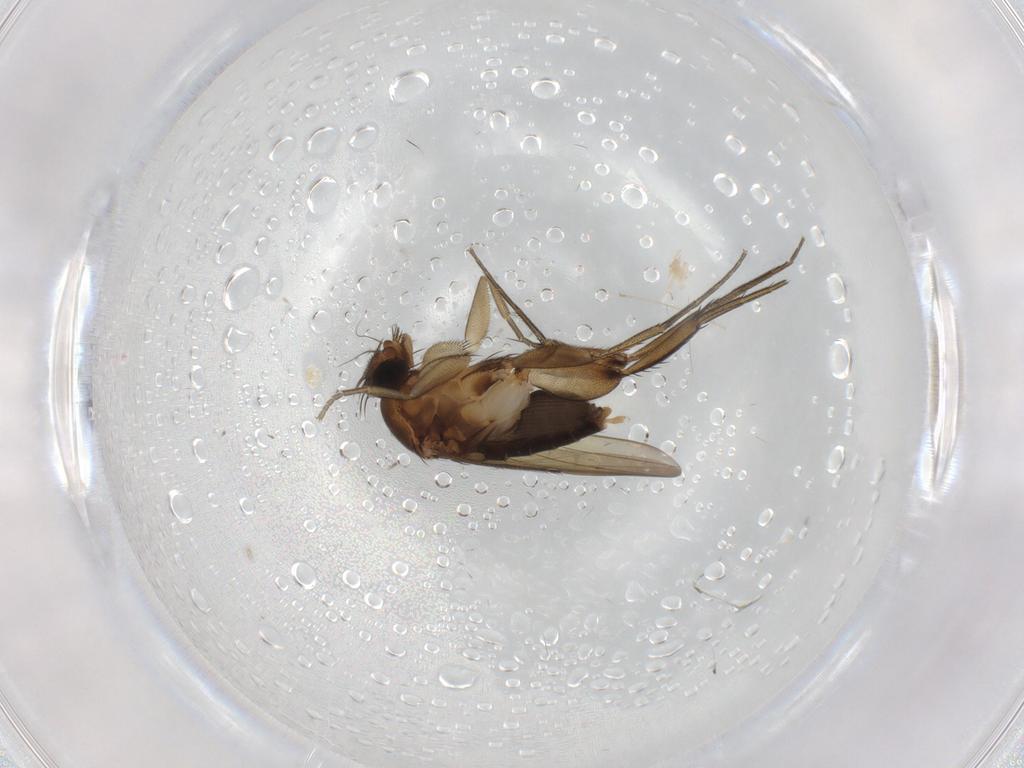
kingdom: Animalia
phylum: Arthropoda
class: Insecta
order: Diptera
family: Phoridae
